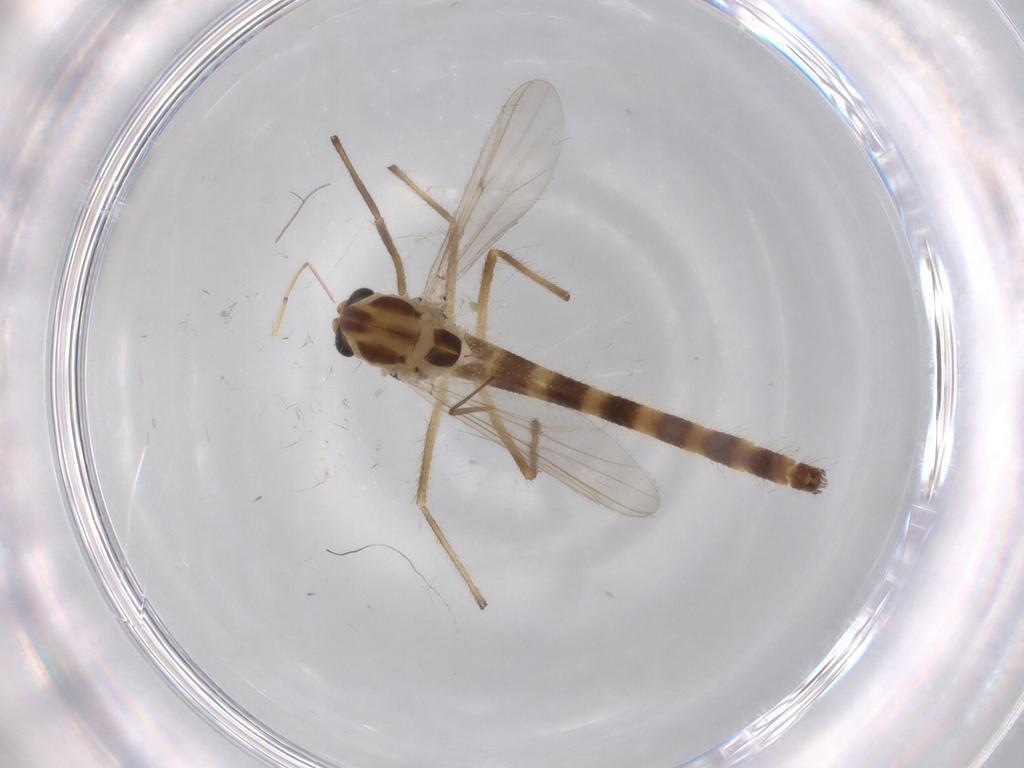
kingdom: Animalia
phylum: Arthropoda
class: Insecta
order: Diptera
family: Chironomidae
